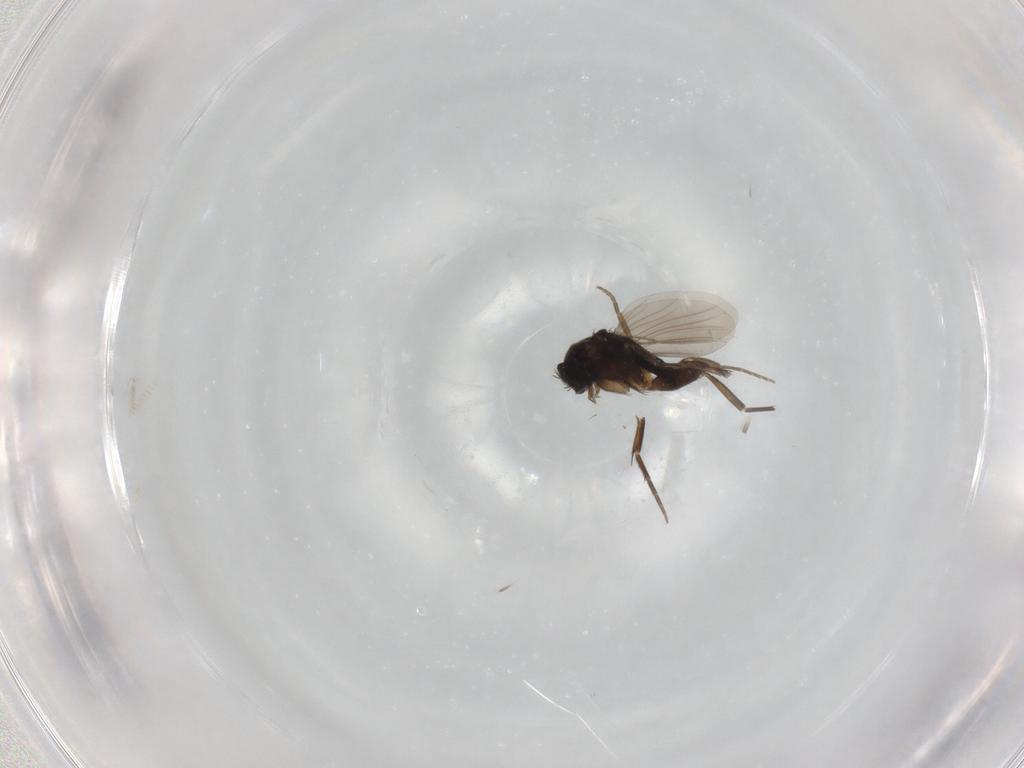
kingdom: Animalia
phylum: Arthropoda
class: Insecta
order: Diptera
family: Phoridae
